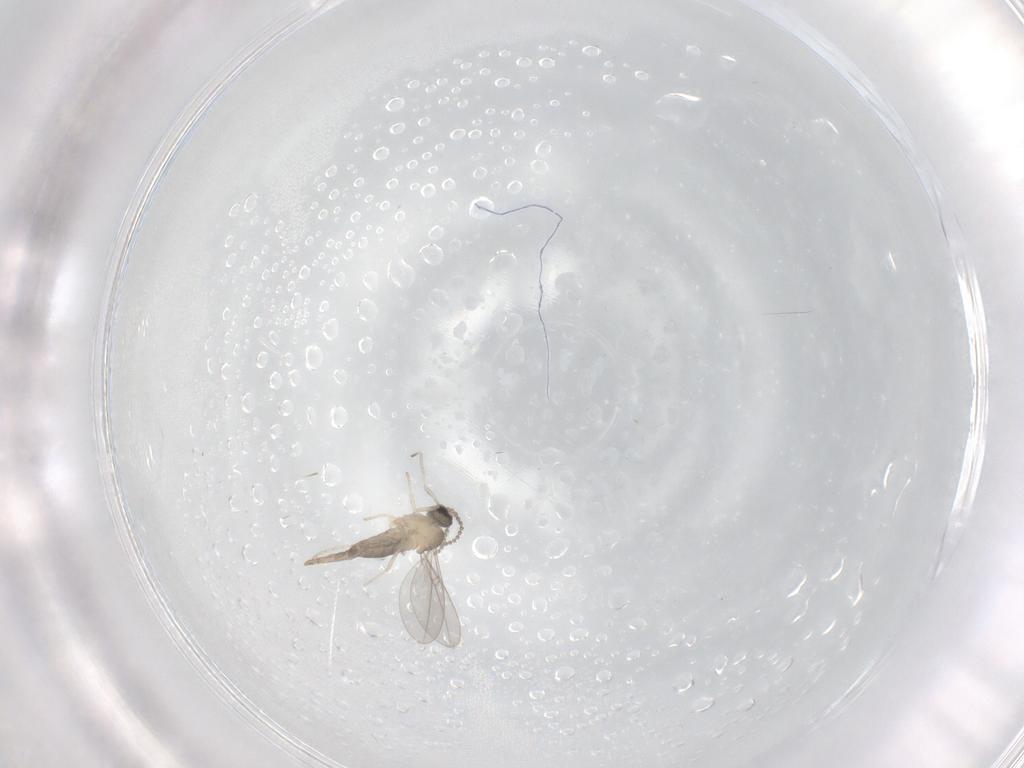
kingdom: Animalia
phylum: Arthropoda
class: Insecta
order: Diptera
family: Cecidomyiidae
